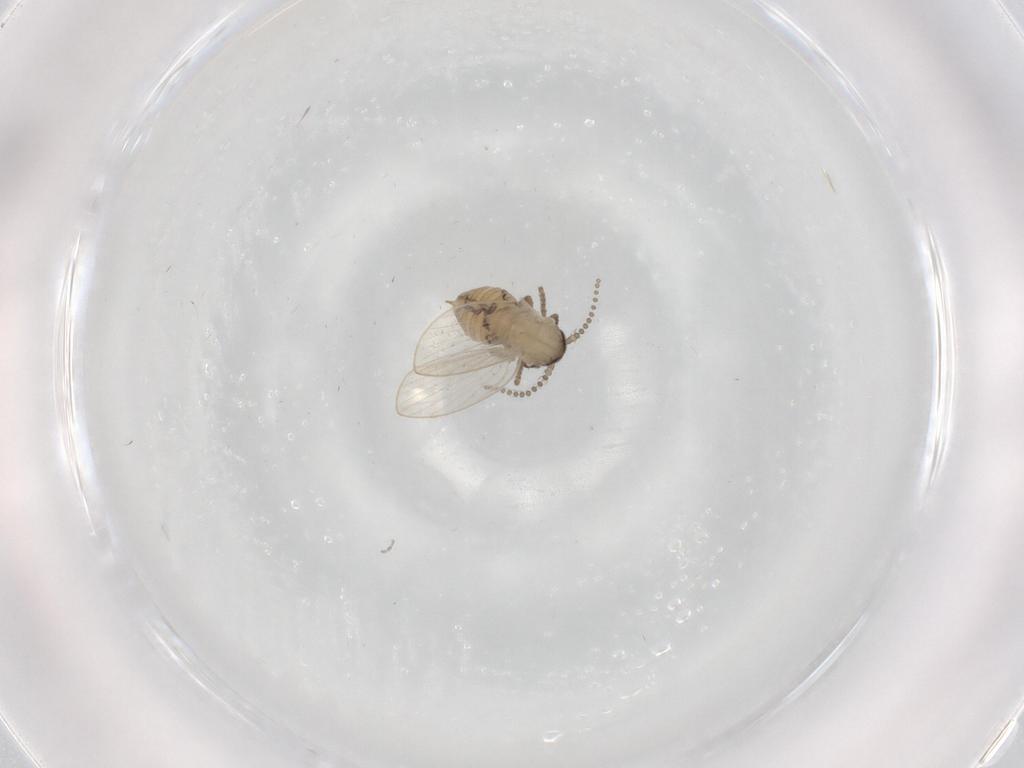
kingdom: Animalia
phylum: Arthropoda
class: Insecta
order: Diptera
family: Psychodidae
